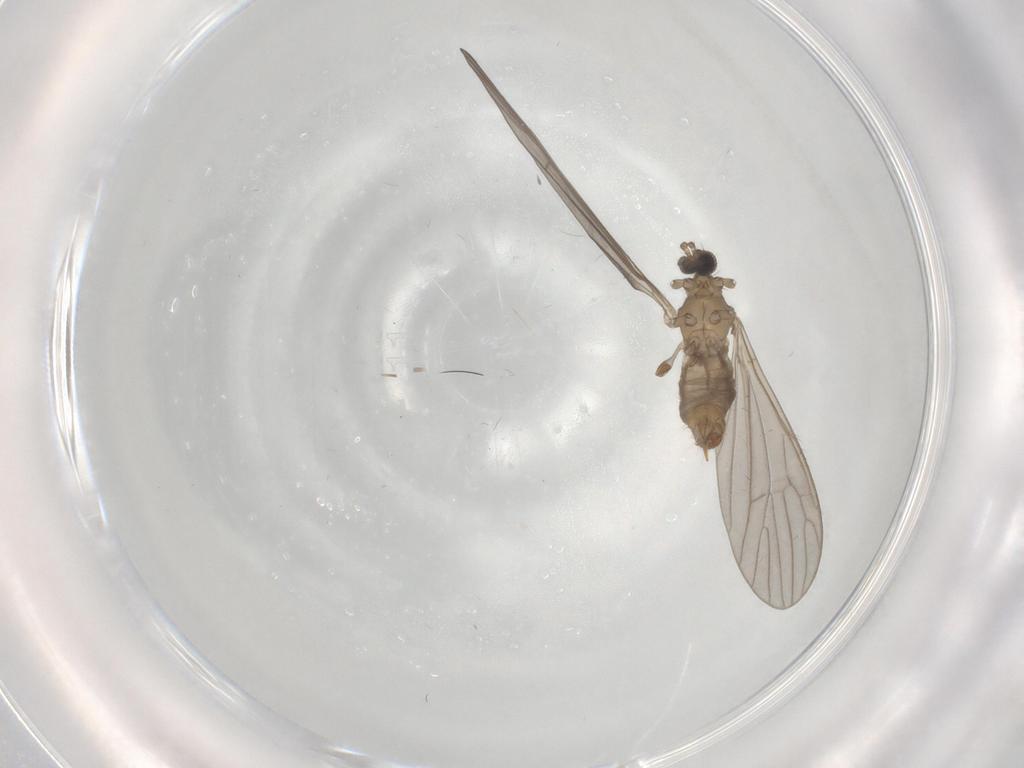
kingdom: Animalia
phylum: Arthropoda
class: Insecta
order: Diptera
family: Limoniidae
